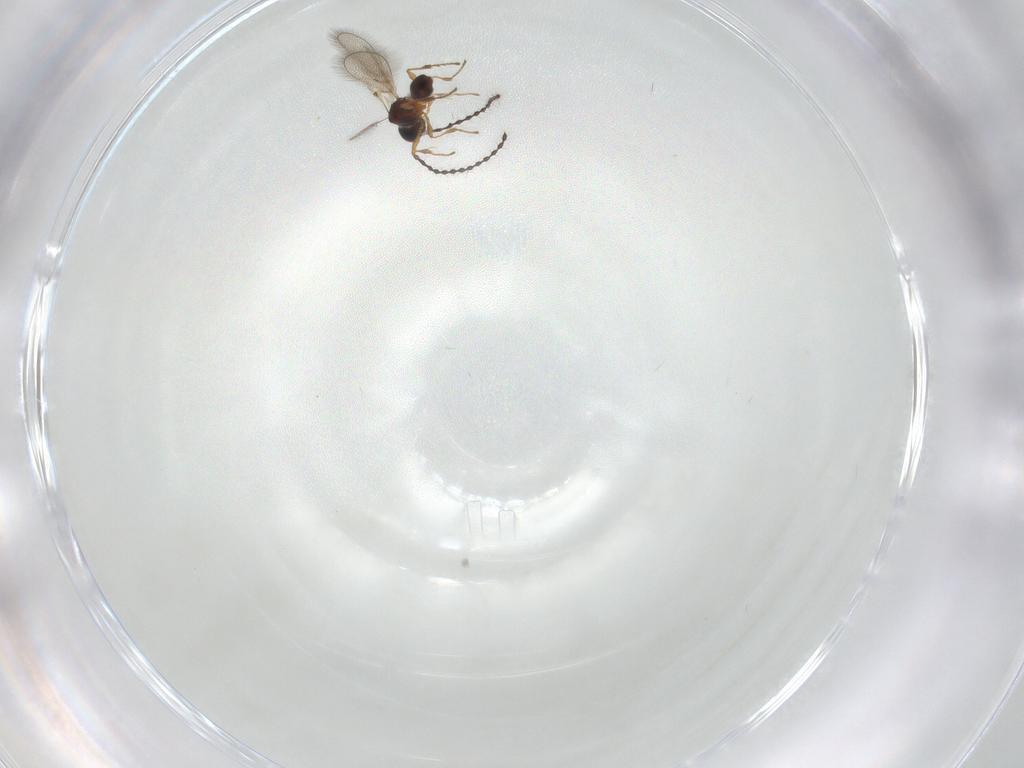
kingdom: Animalia
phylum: Arthropoda
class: Insecta
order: Hymenoptera
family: Diapriidae
